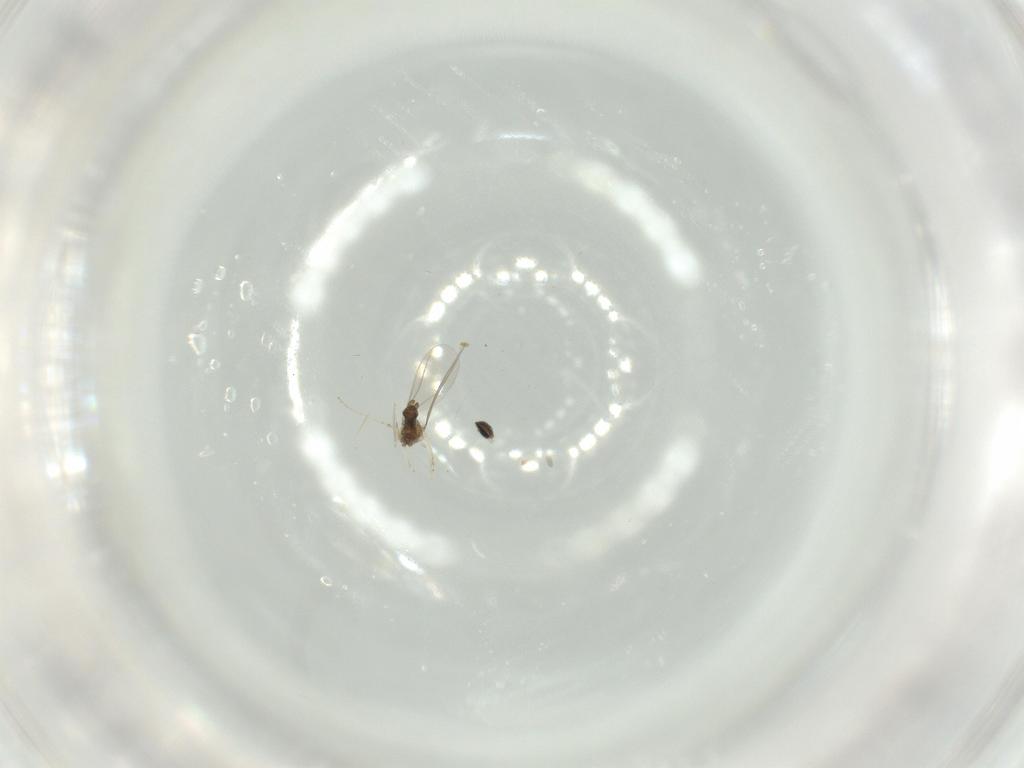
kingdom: Animalia
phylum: Arthropoda
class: Insecta
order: Diptera
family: Cecidomyiidae
